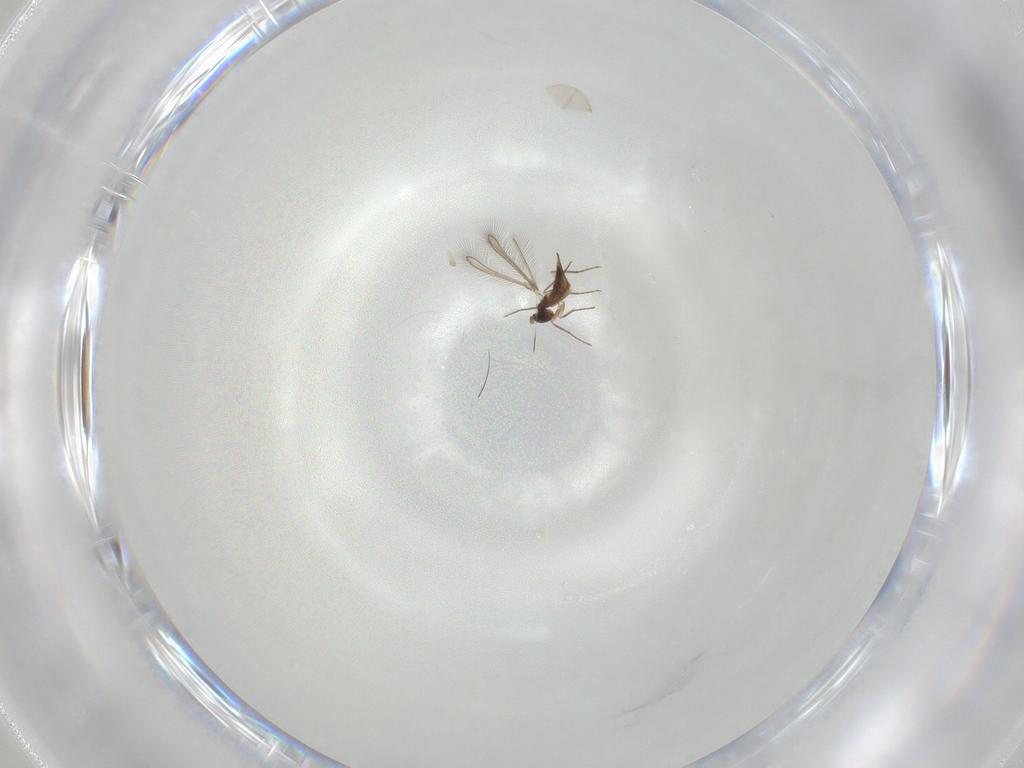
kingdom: Animalia
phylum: Arthropoda
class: Insecta
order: Hymenoptera
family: Mymaridae
